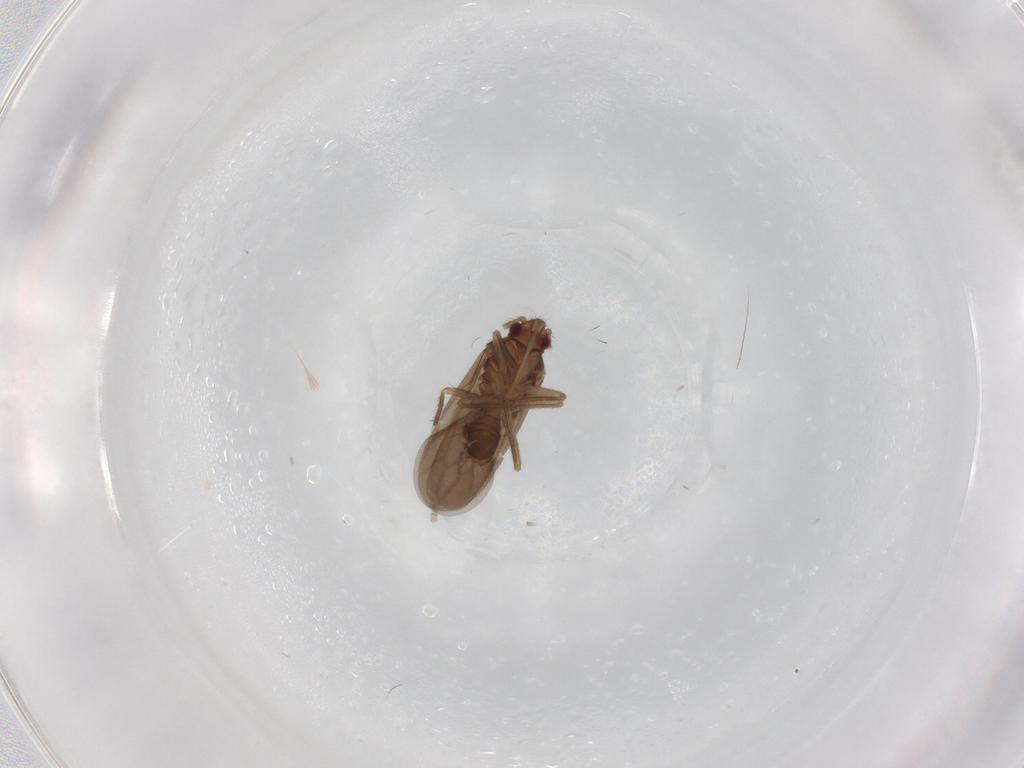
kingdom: Animalia
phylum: Arthropoda
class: Insecta
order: Hemiptera
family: Ceratocombidae
